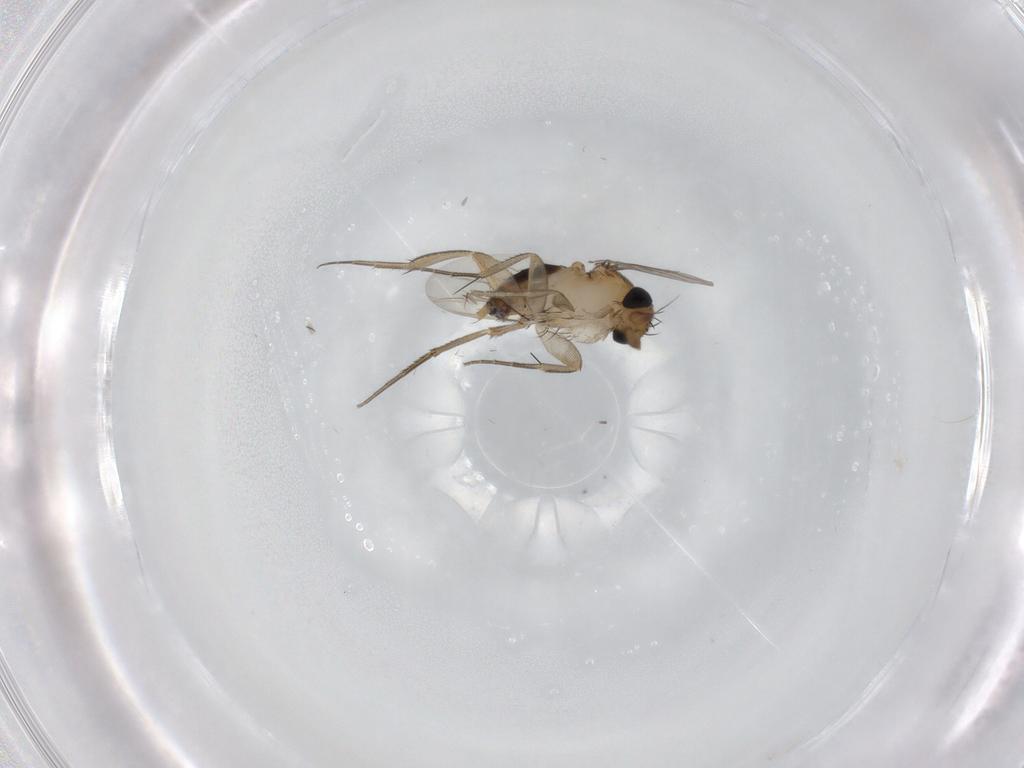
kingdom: Animalia
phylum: Arthropoda
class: Insecta
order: Diptera
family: Phoridae
